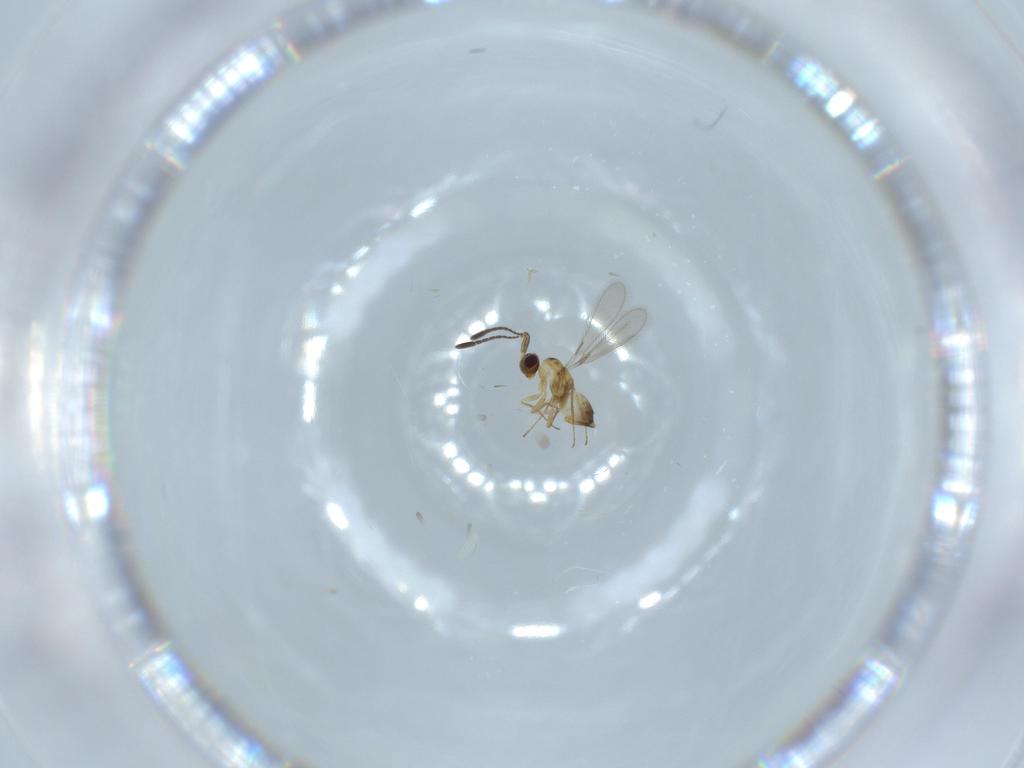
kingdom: Animalia
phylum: Arthropoda
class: Insecta
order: Hymenoptera
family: Mymaridae
